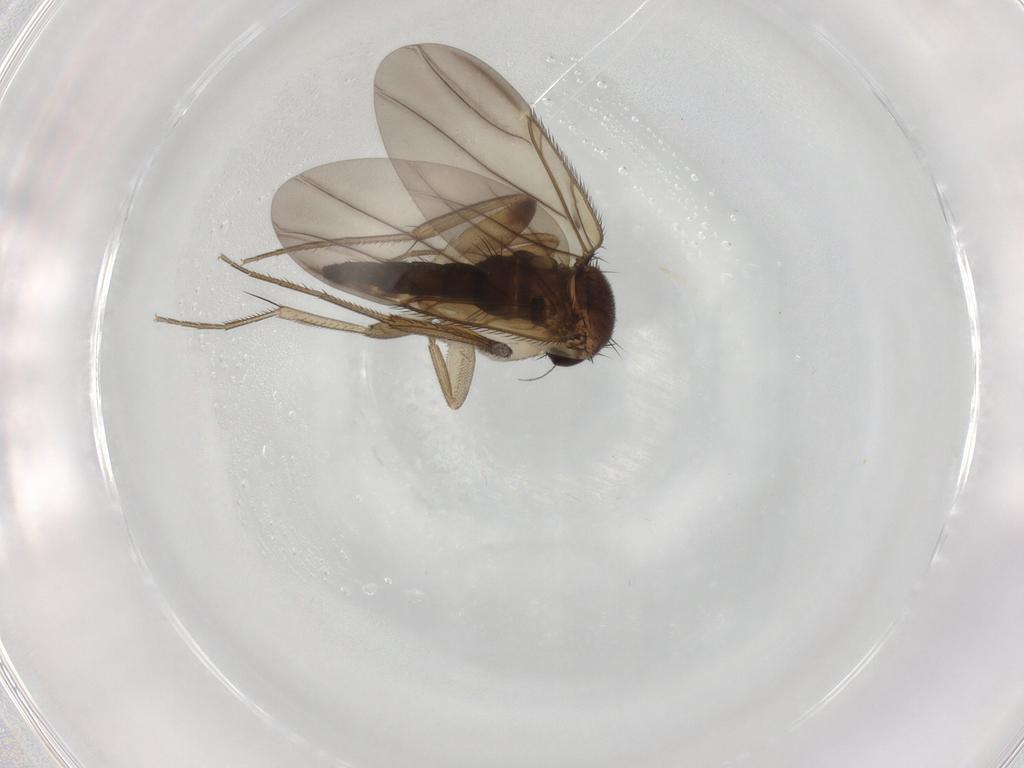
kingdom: Animalia
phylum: Arthropoda
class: Insecta
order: Diptera
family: Phoridae
